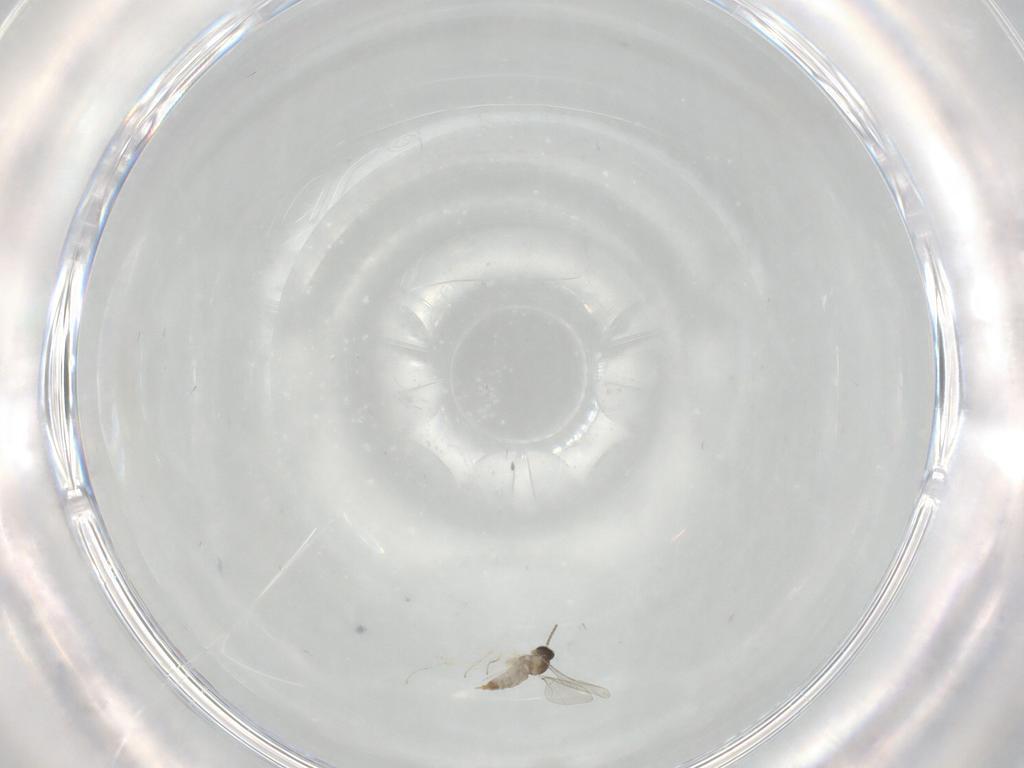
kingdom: Animalia
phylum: Arthropoda
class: Insecta
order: Diptera
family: Cecidomyiidae
